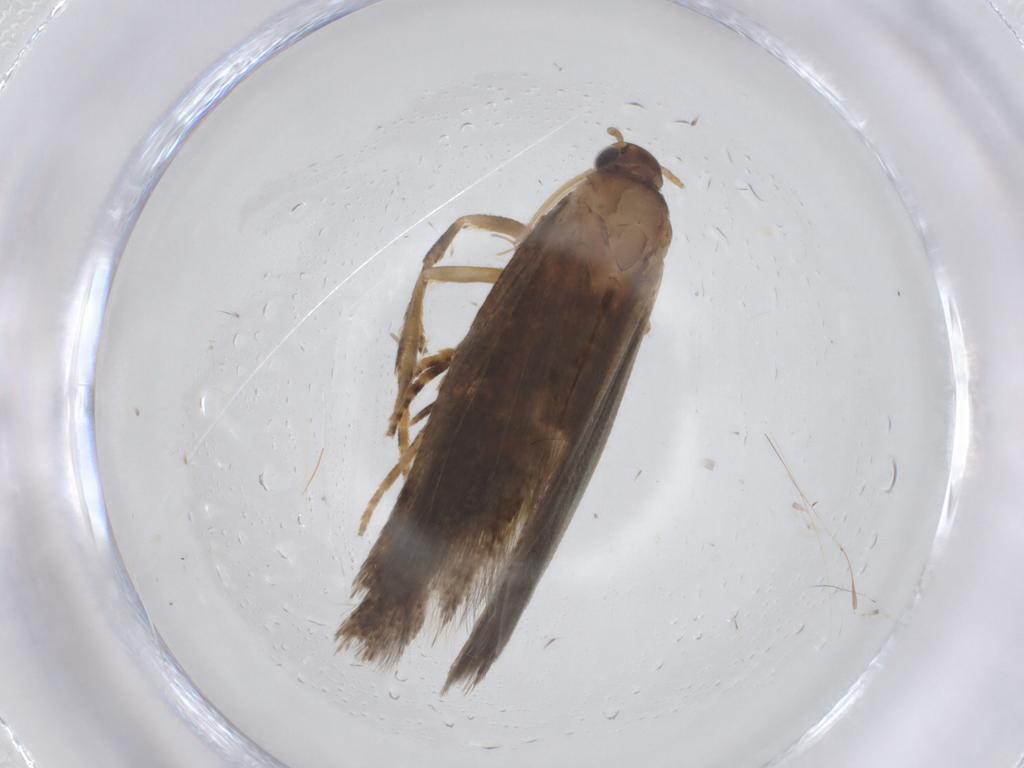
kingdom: Animalia
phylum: Arthropoda
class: Insecta
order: Lepidoptera
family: Gelechiidae
